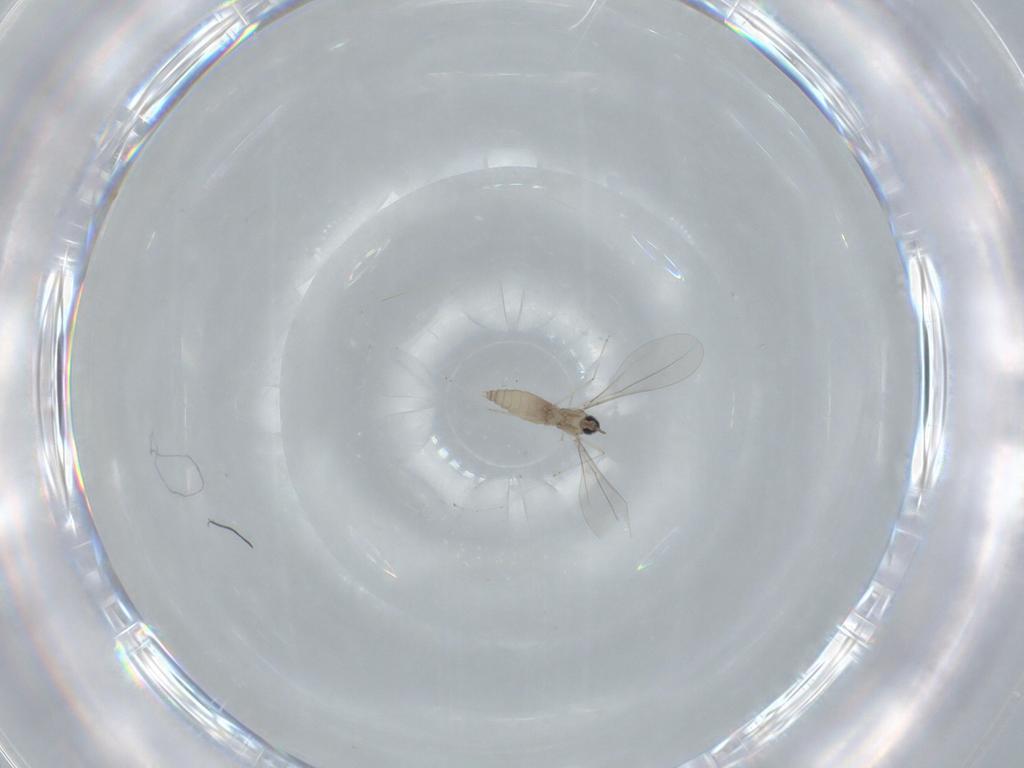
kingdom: Animalia
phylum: Arthropoda
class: Insecta
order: Diptera
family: Cecidomyiidae
